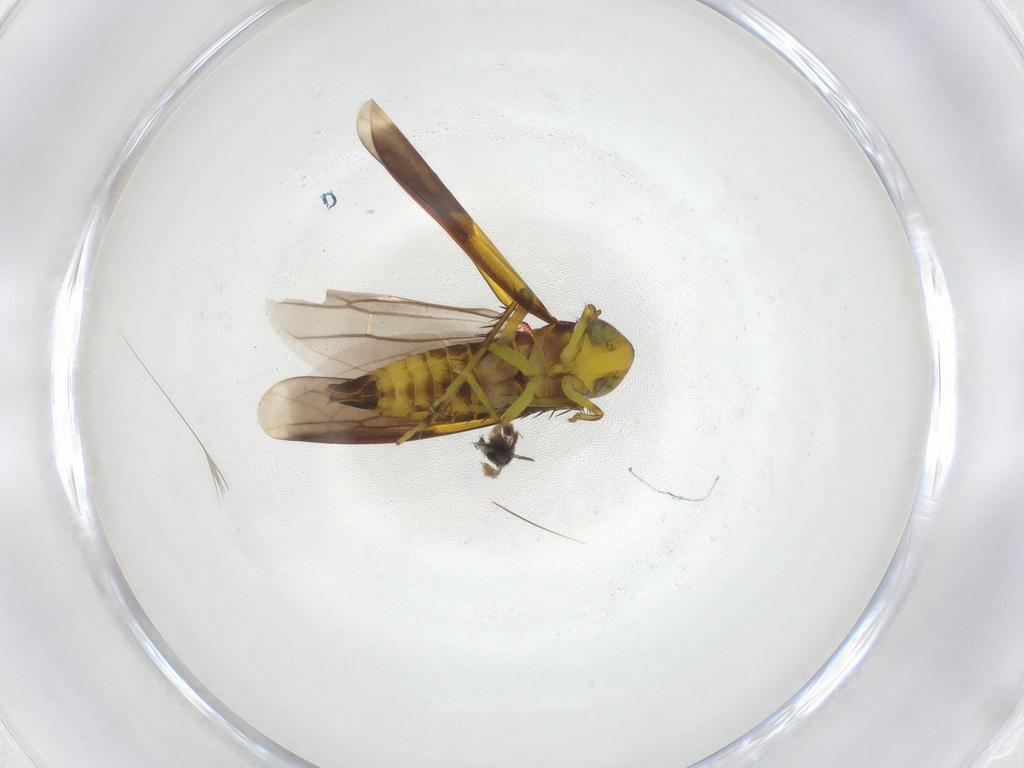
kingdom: Animalia
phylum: Arthropoda
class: Insecta
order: Hemiptera
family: Cicadellidae
